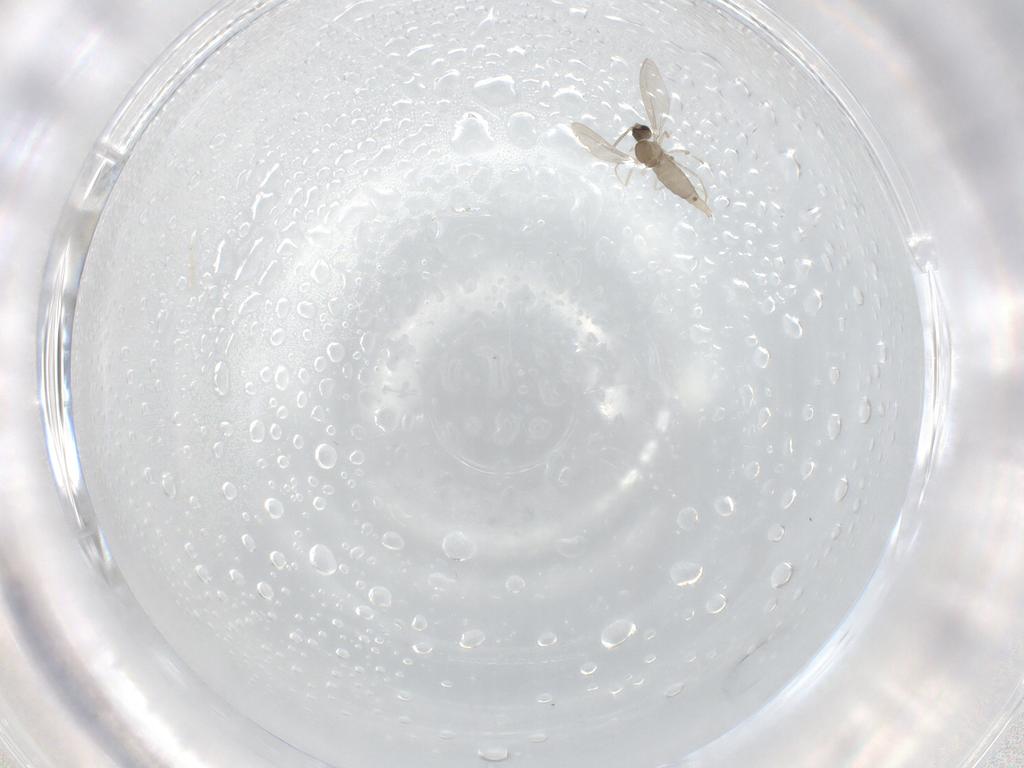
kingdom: Animalia
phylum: Arthropoda
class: Insecta
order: Diptera
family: Cecidomyiidae
